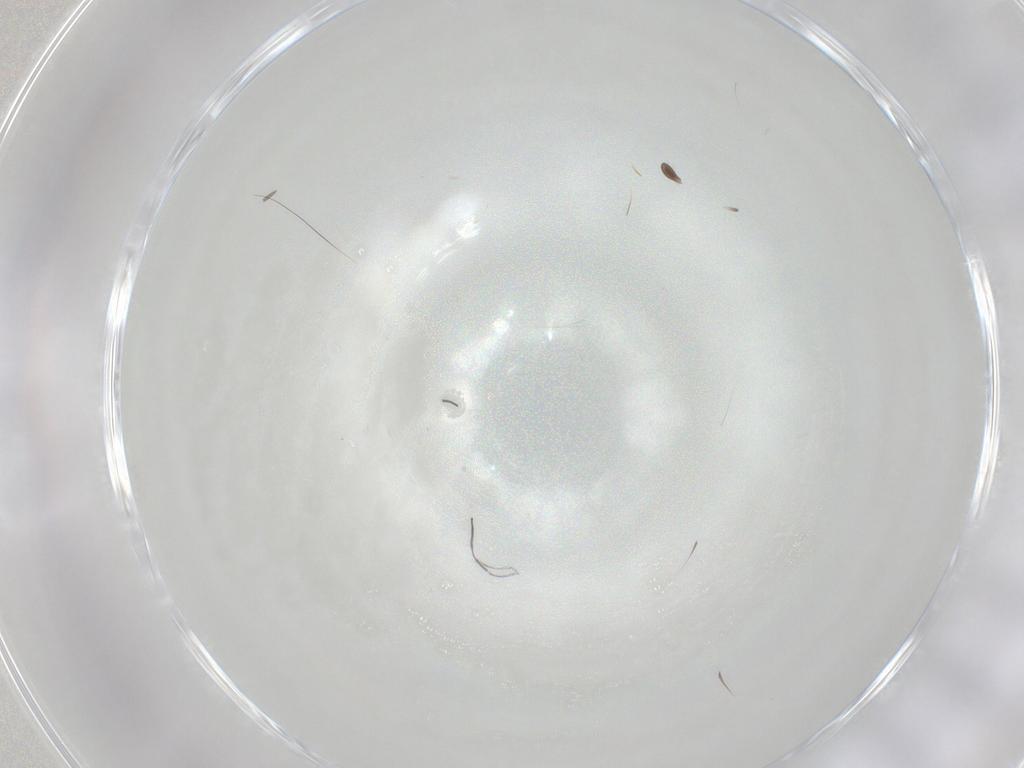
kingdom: Animalia
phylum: Arthropoda
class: Insecta
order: Diptera
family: Chironomidae
